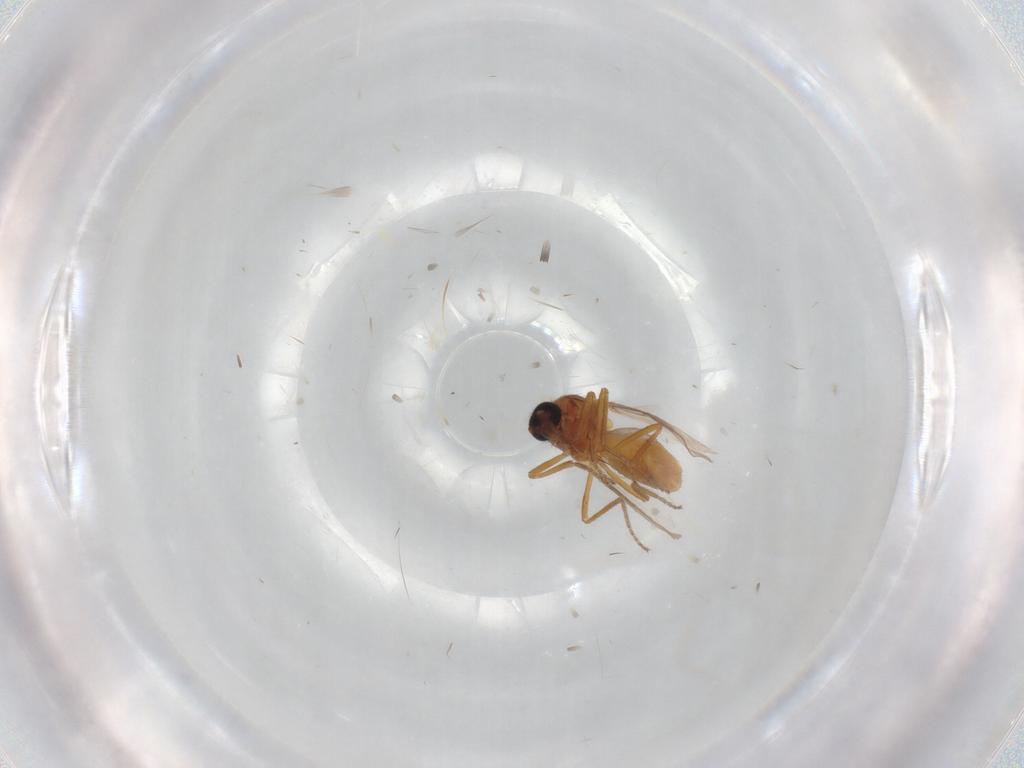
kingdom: Animalia
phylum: Arthropoda
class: Insecta
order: Diptera
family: Ceratopogonidae
